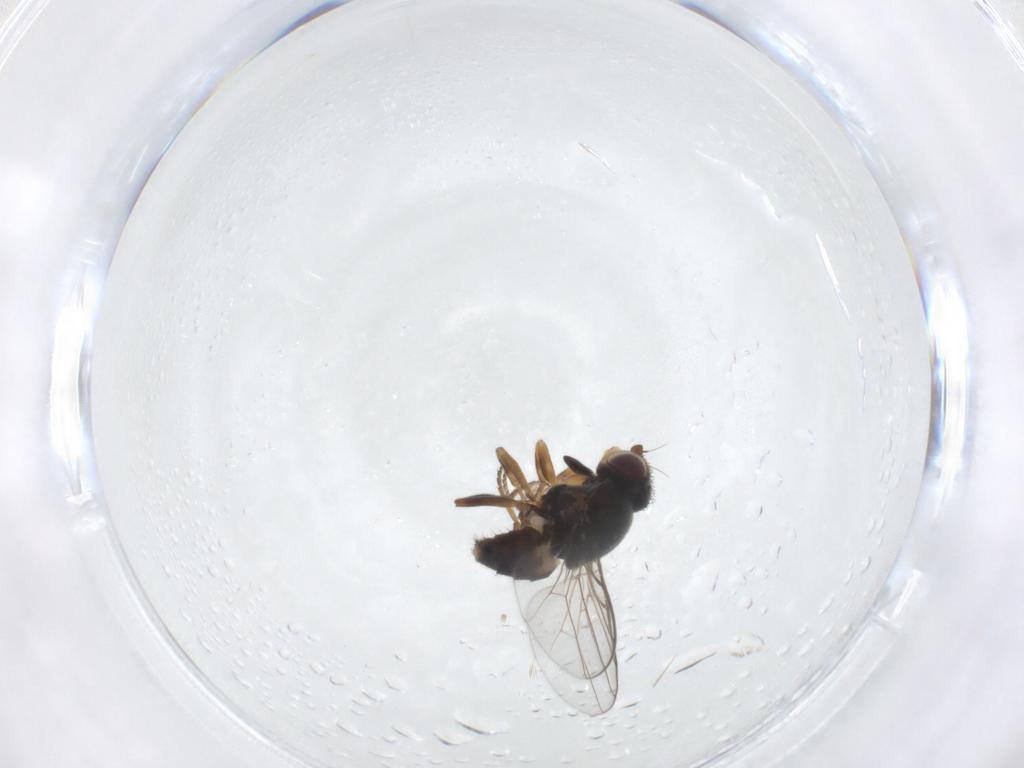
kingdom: Animalia
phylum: Arthropoda
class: Insecta
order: Diptera
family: Chloropidae
